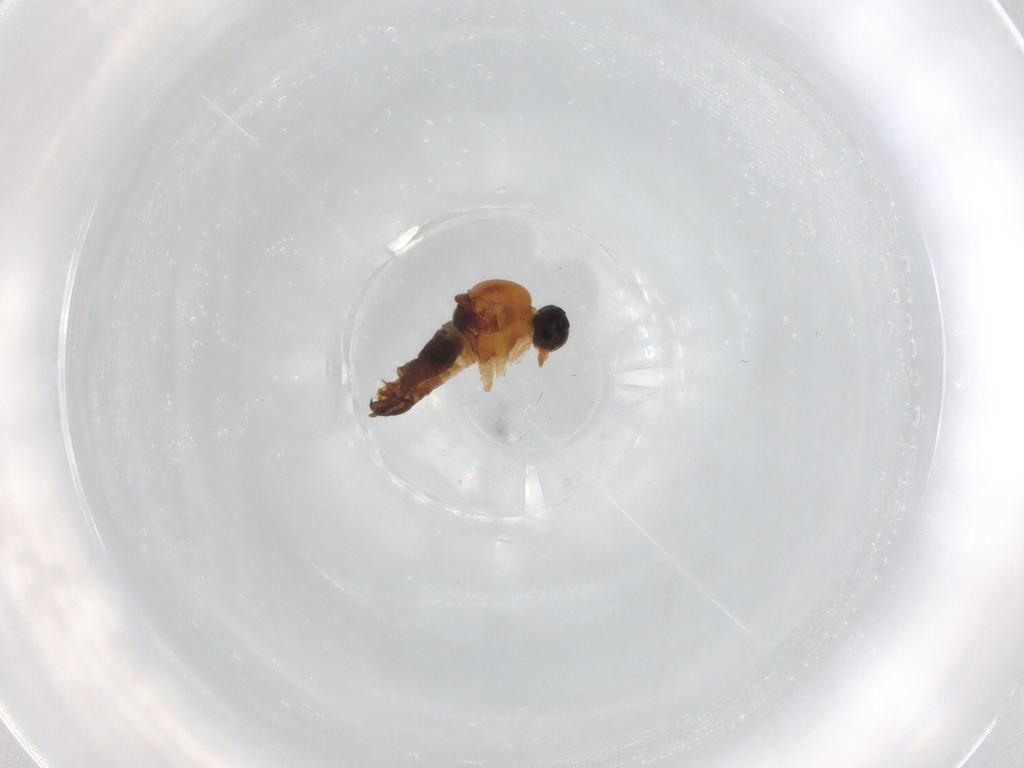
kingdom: Animalia
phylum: Arthropoda
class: Insecta
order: Diptera
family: Hybotidae
